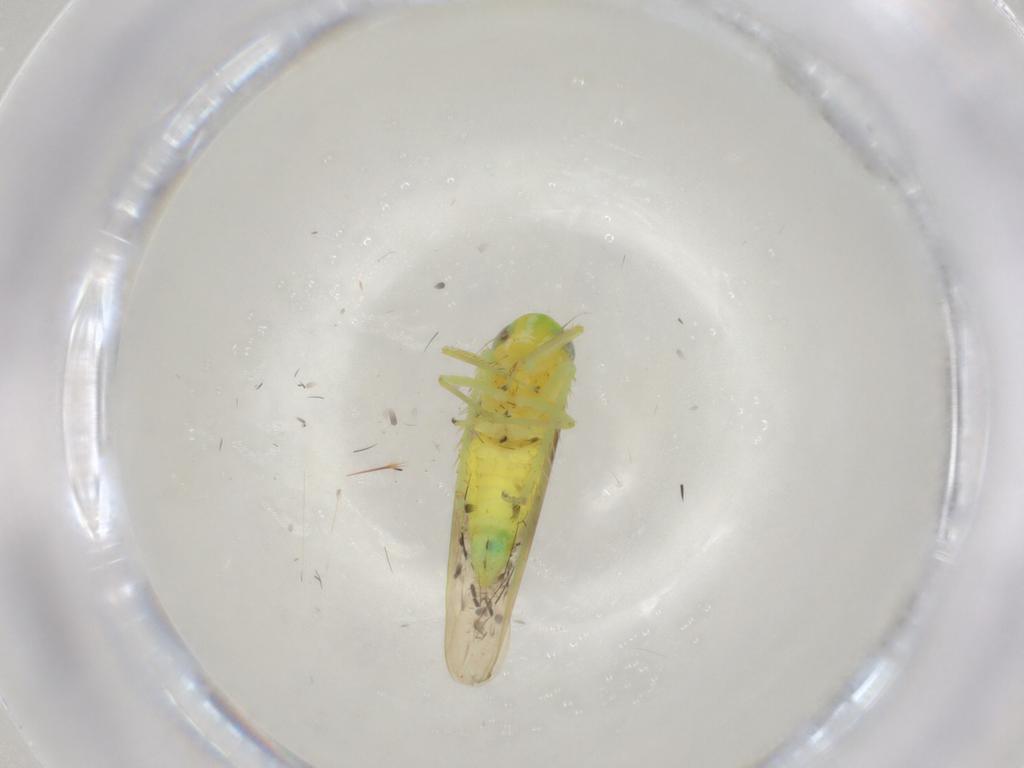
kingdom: Animalia
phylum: Arthropoda
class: Insecta
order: Hemiptera
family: Cicadellidae
